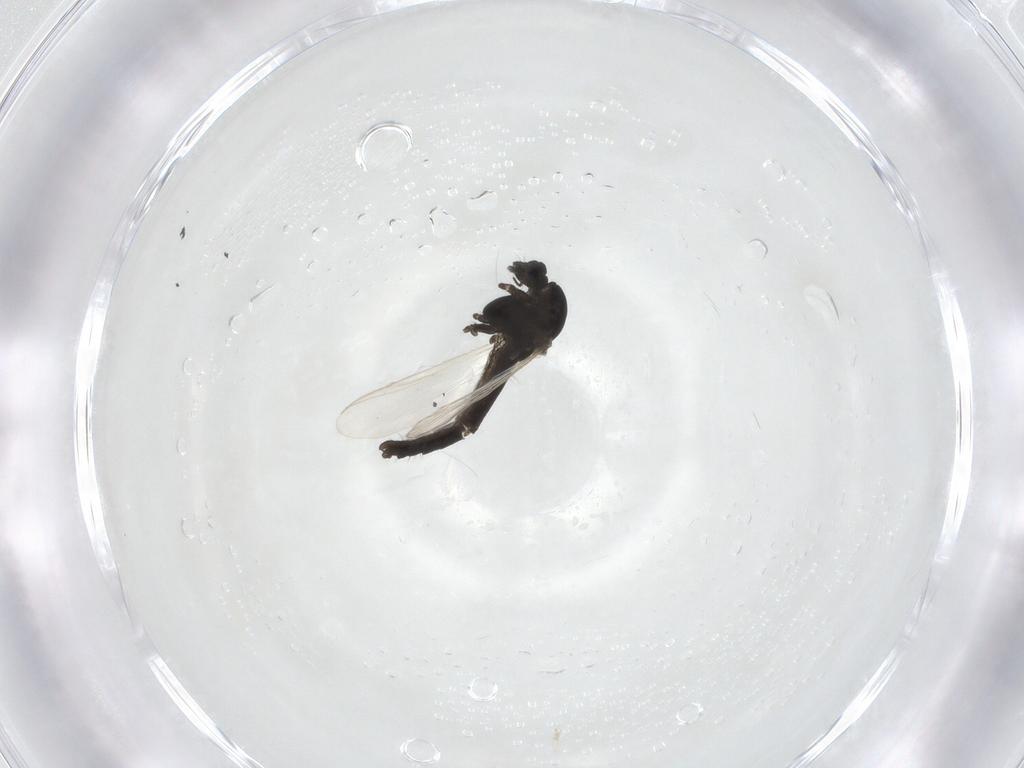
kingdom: Animalia
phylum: Arthropoda
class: Insecta
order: Diptera
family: Chironomidae
